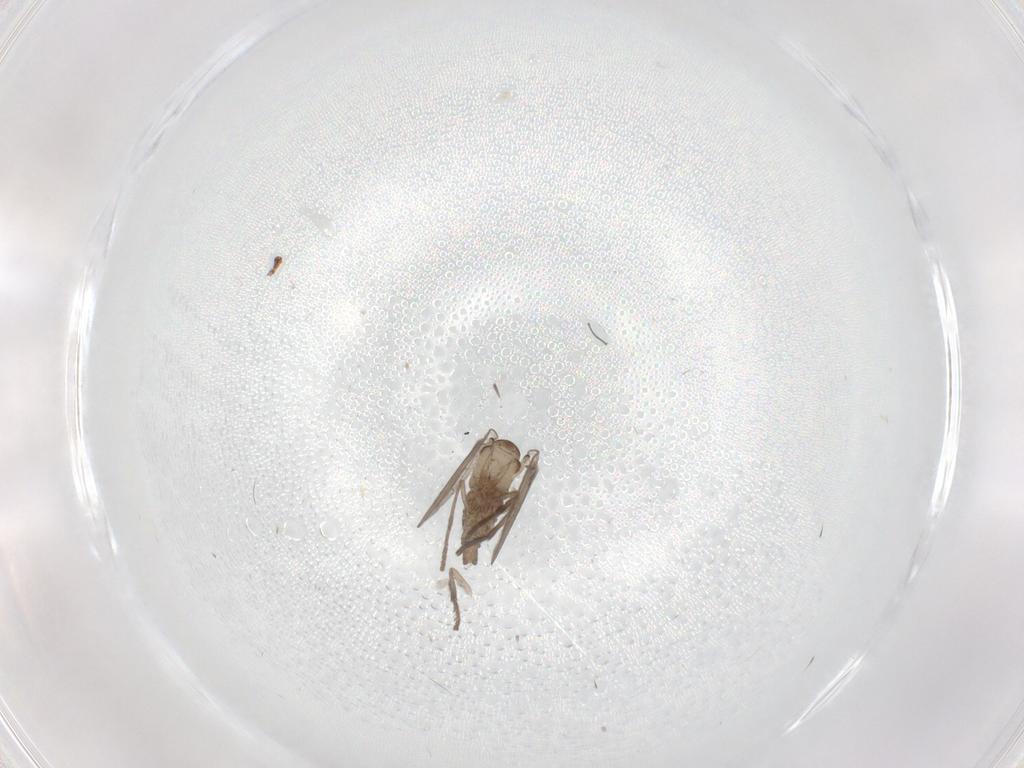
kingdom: Animalia
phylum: Arthropoda
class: Insecta
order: Diptera
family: Psychodidae
